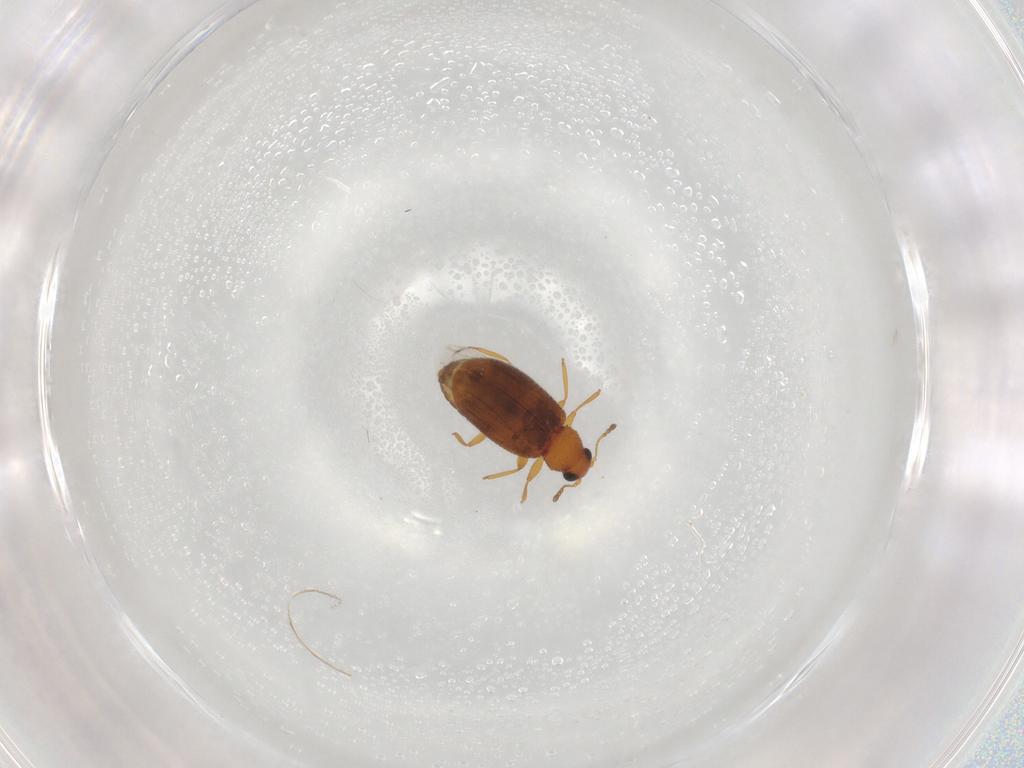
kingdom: Animalia
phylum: Arthropoda
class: Insecta
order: Coleoptera
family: Latridiidae
